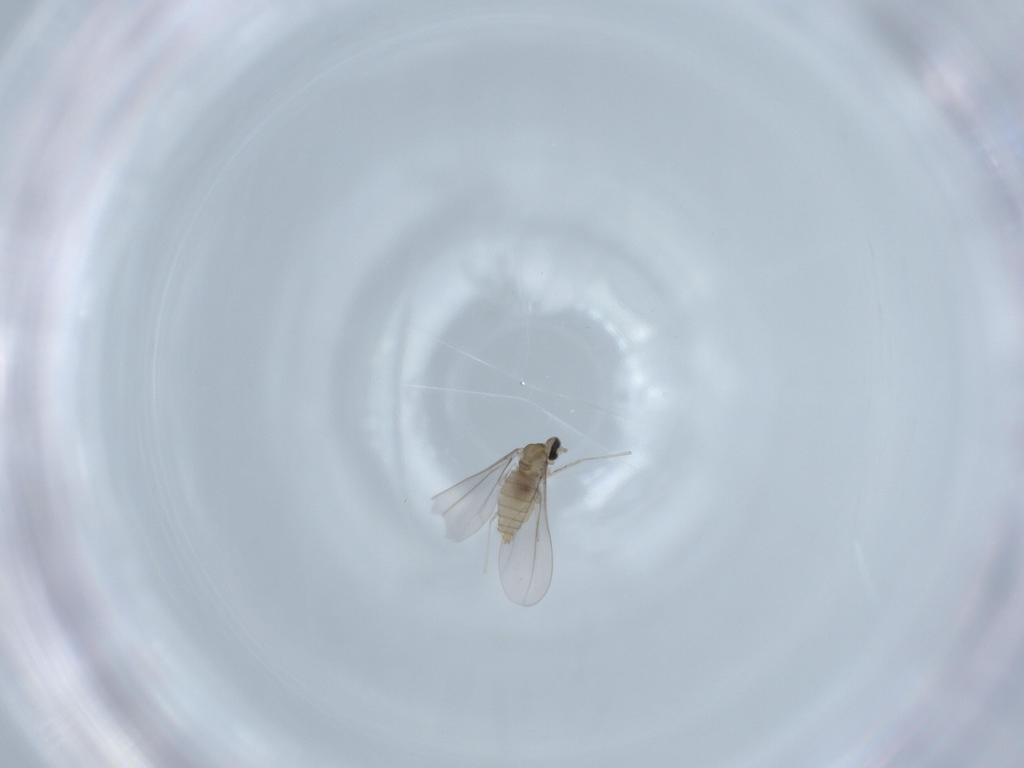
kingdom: Animalia
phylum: Arthropoda
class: Insecta
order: Diptera
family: Cecidomyiidae
